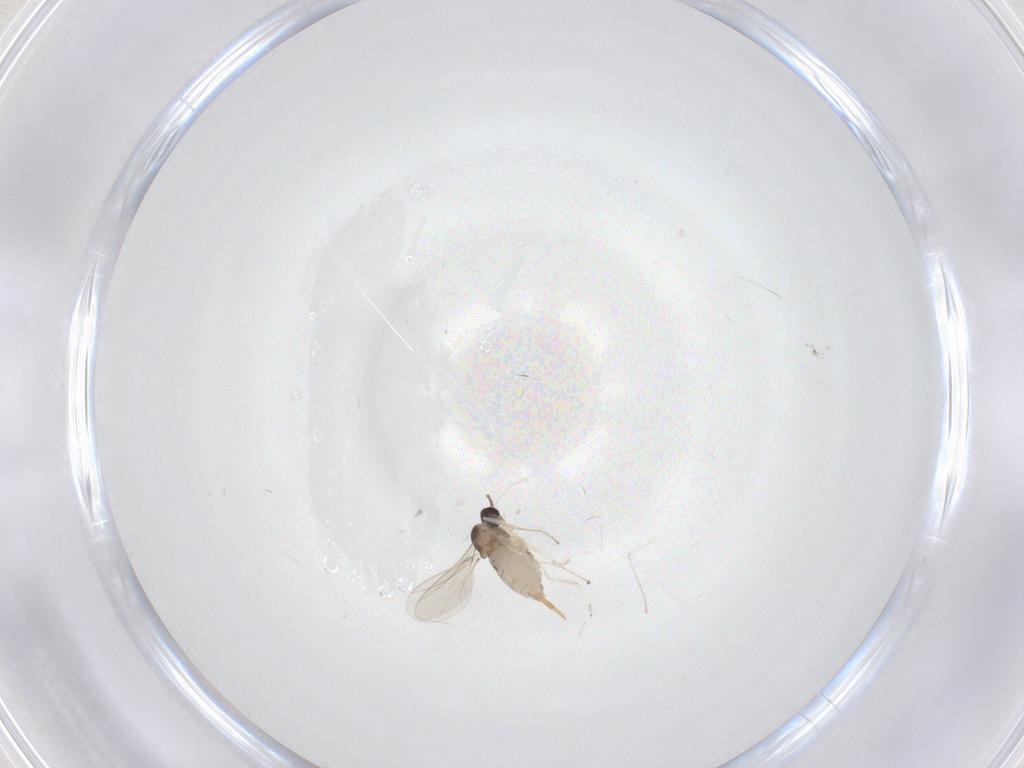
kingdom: Animalia
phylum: Arthropoda
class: Insecta
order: Diptera
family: Cecidomyiidae
